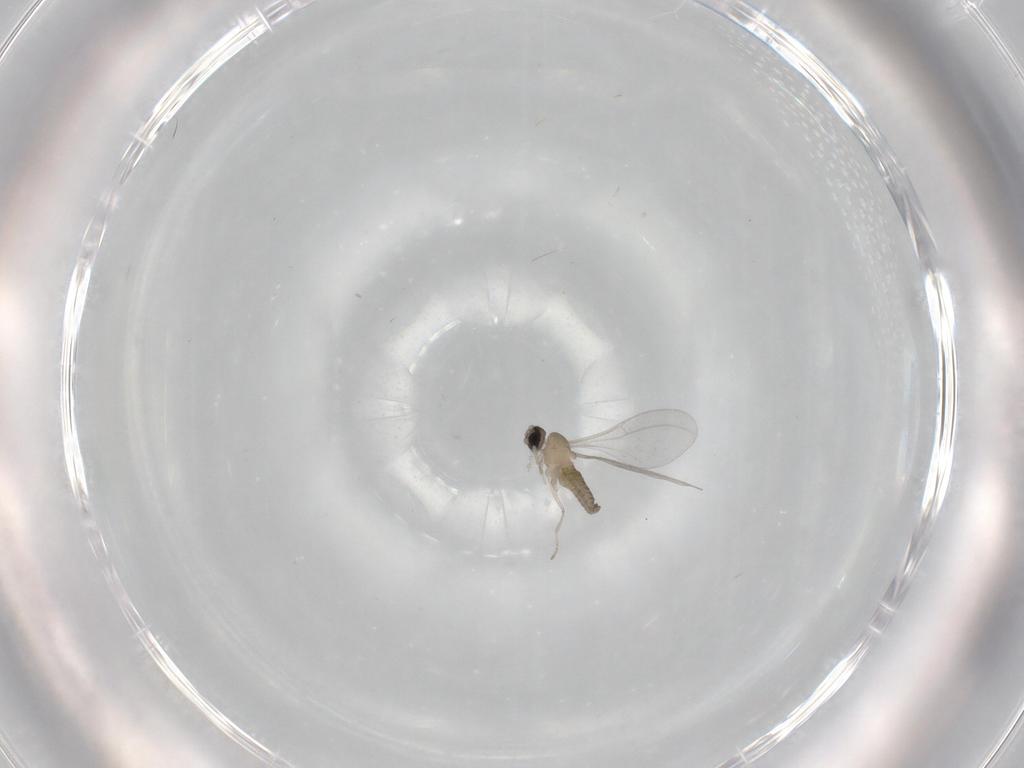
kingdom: Animalia
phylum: Arthropoda
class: Insecta
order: Diptera
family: Cecidomyiidae
